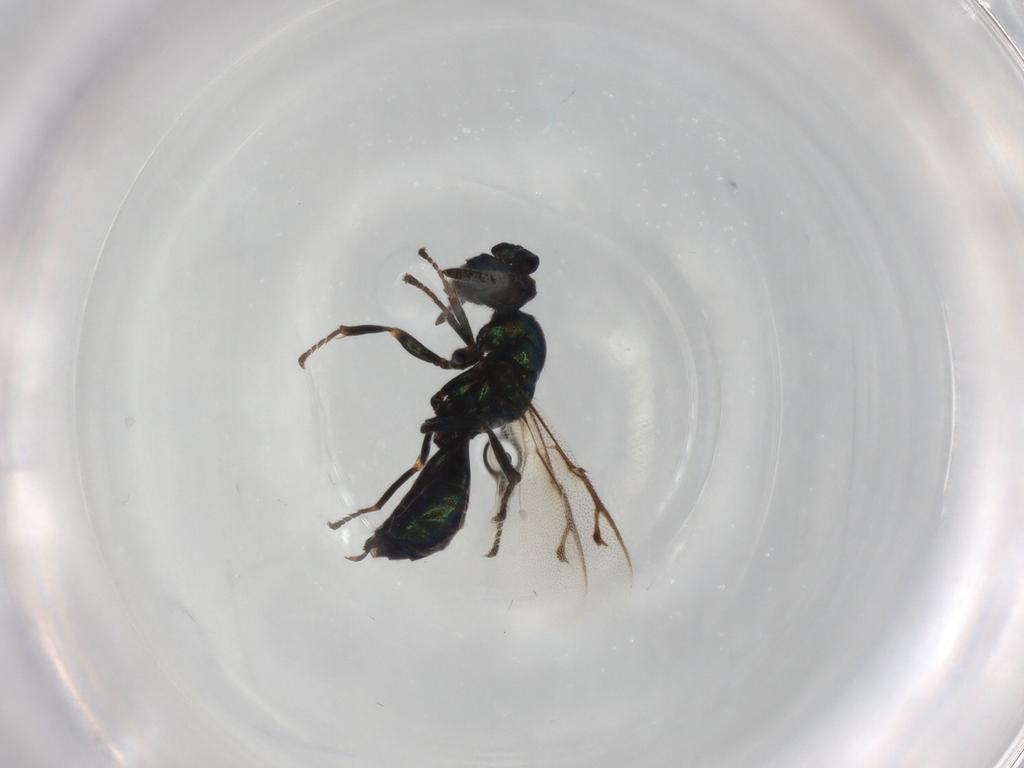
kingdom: Animalia
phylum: Arthropoda
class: Insecta
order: Hymenoptera
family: Pteromalidae
